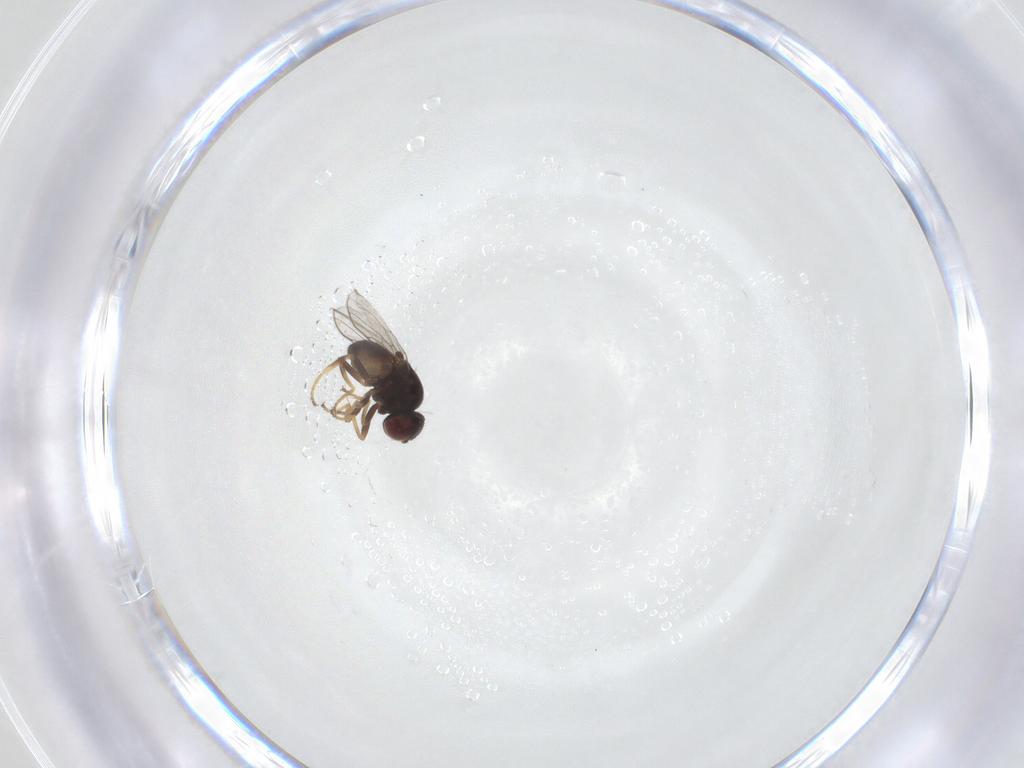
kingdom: Animalia
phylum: Arthropoda
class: Insecta
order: Diptera
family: Chloropidae
